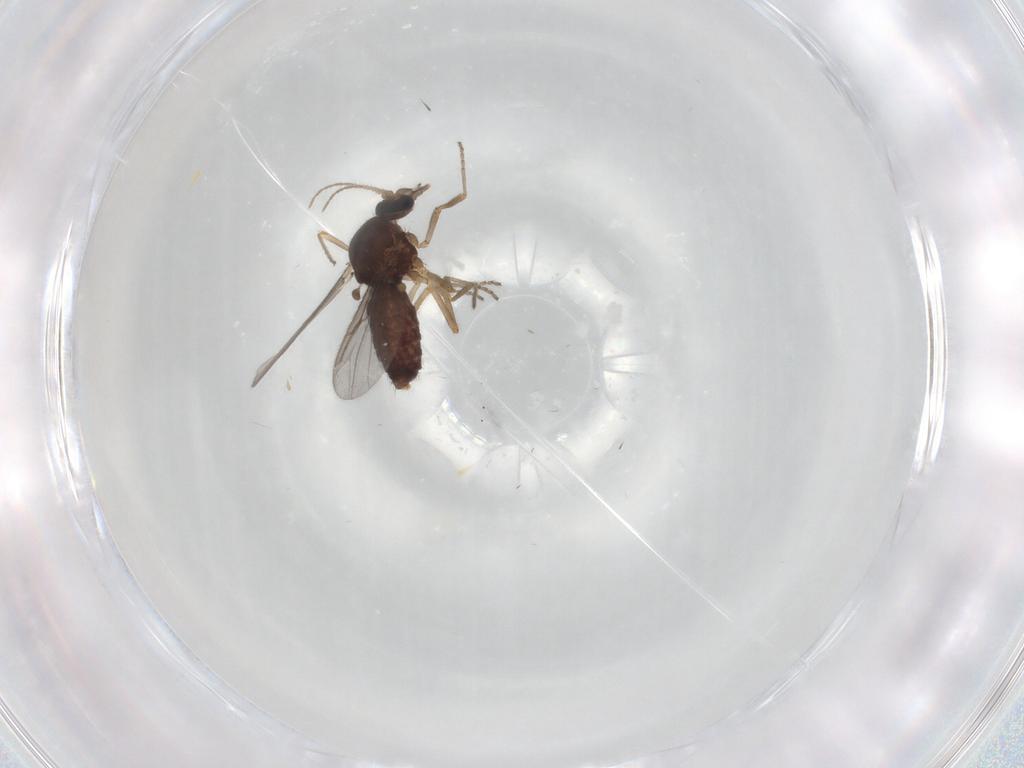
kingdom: Animalia
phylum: Arthropoda
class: Insecta
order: Diptera
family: Ceratopogonidae
